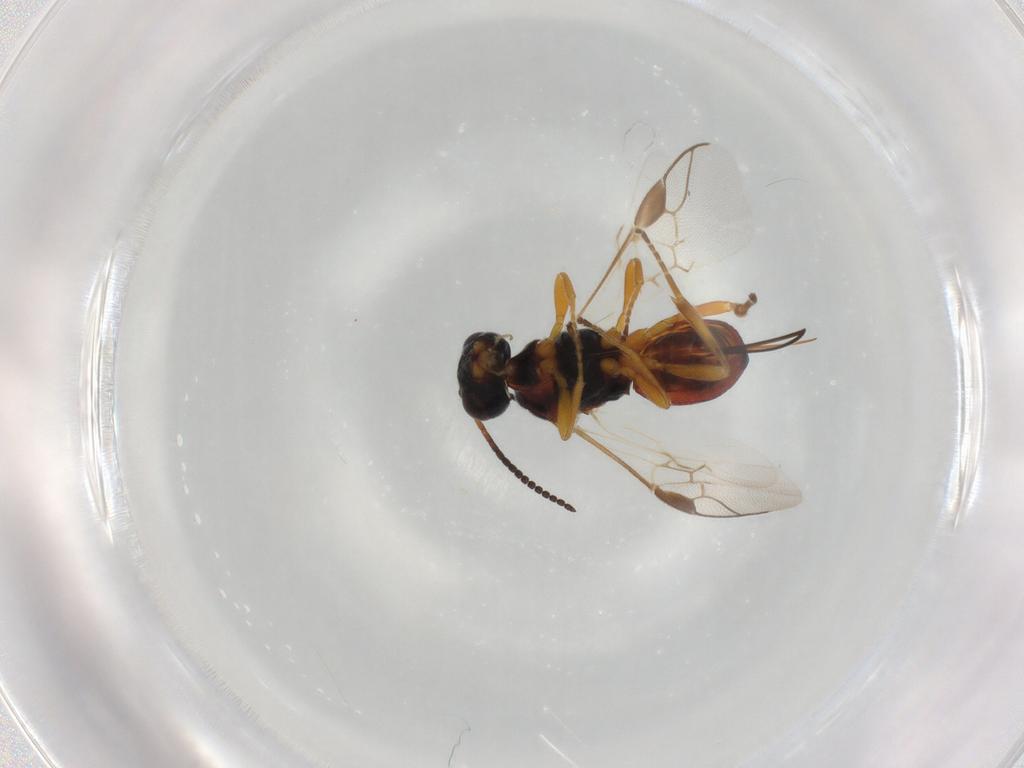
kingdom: Animalia
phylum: Arthropoda
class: Insecta
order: Hymenoptera
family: Braconidae
